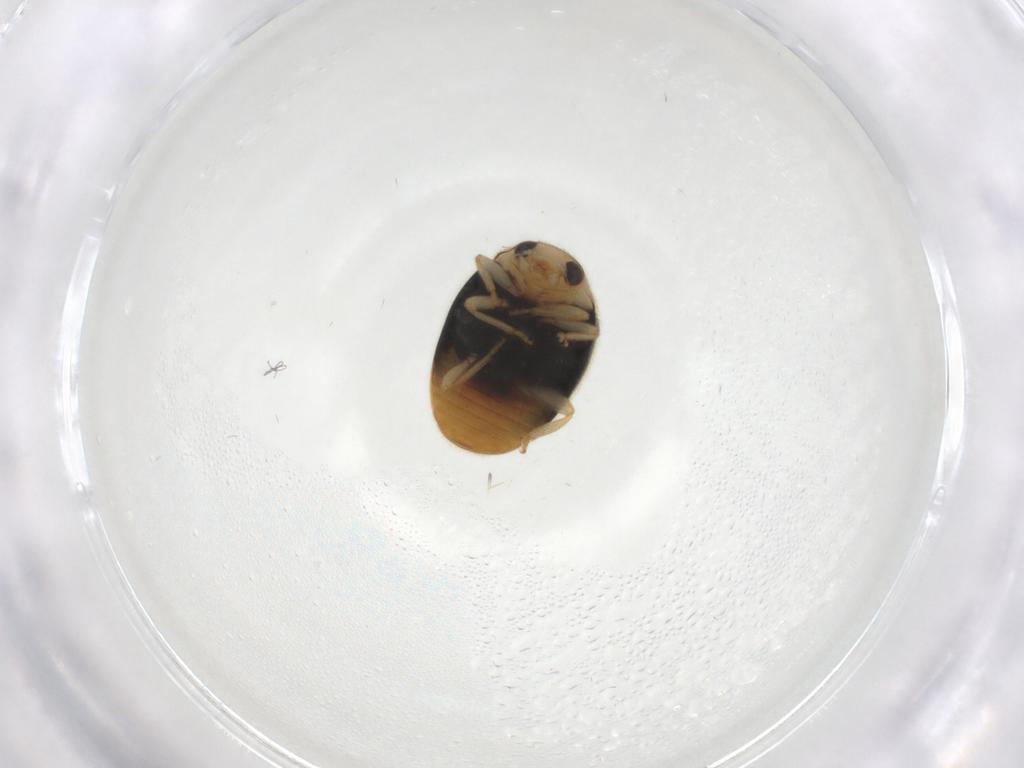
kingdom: Animalia
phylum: Arthropoda
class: Insecta
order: Coleoptera
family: Coccinellidae
